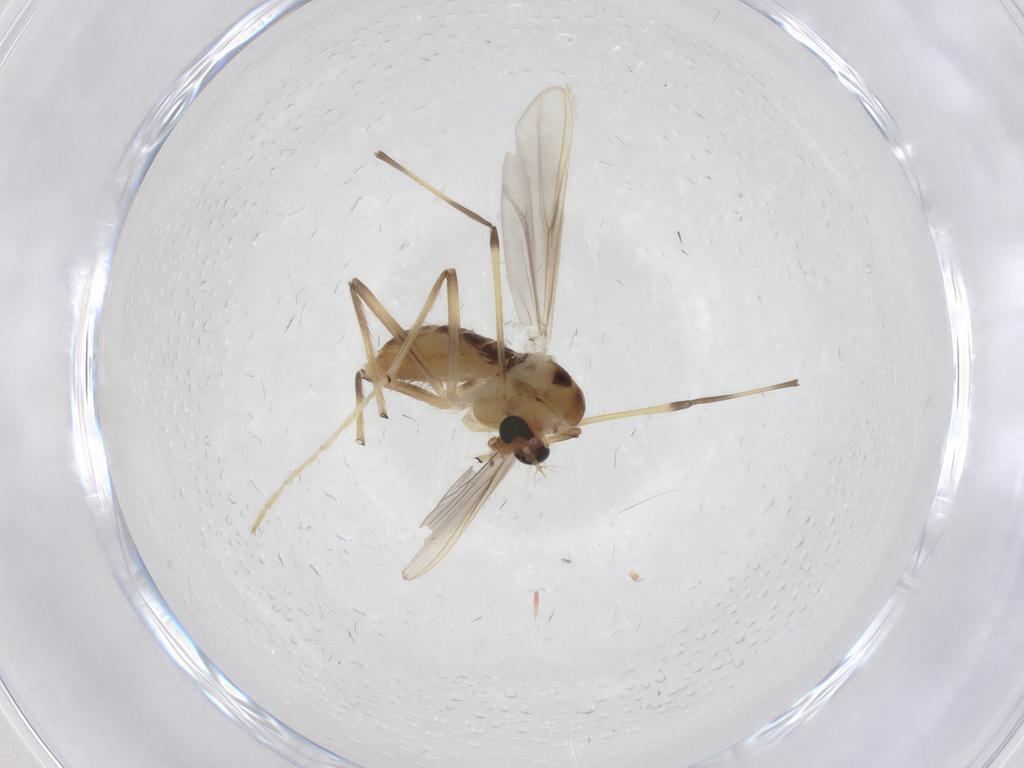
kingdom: Animalia
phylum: Arthropoda
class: Insecta
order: Diptera
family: Chironomidae
